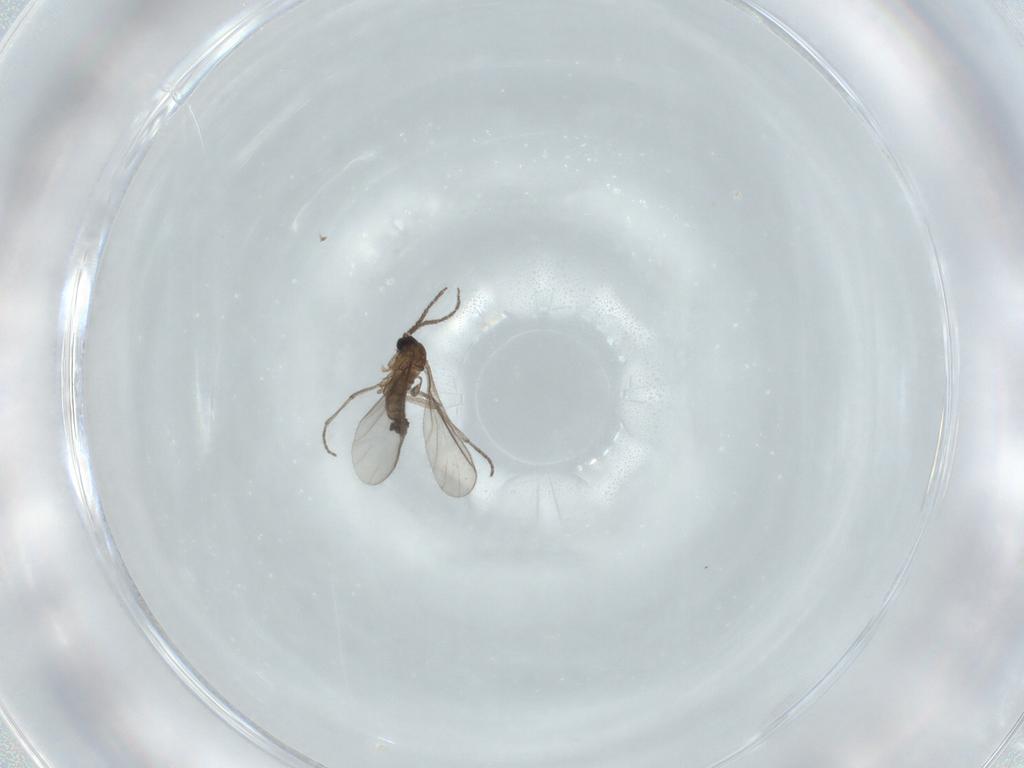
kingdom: Animalia
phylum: Arthropoda
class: Insecta
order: Diptera
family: Sciaridae
